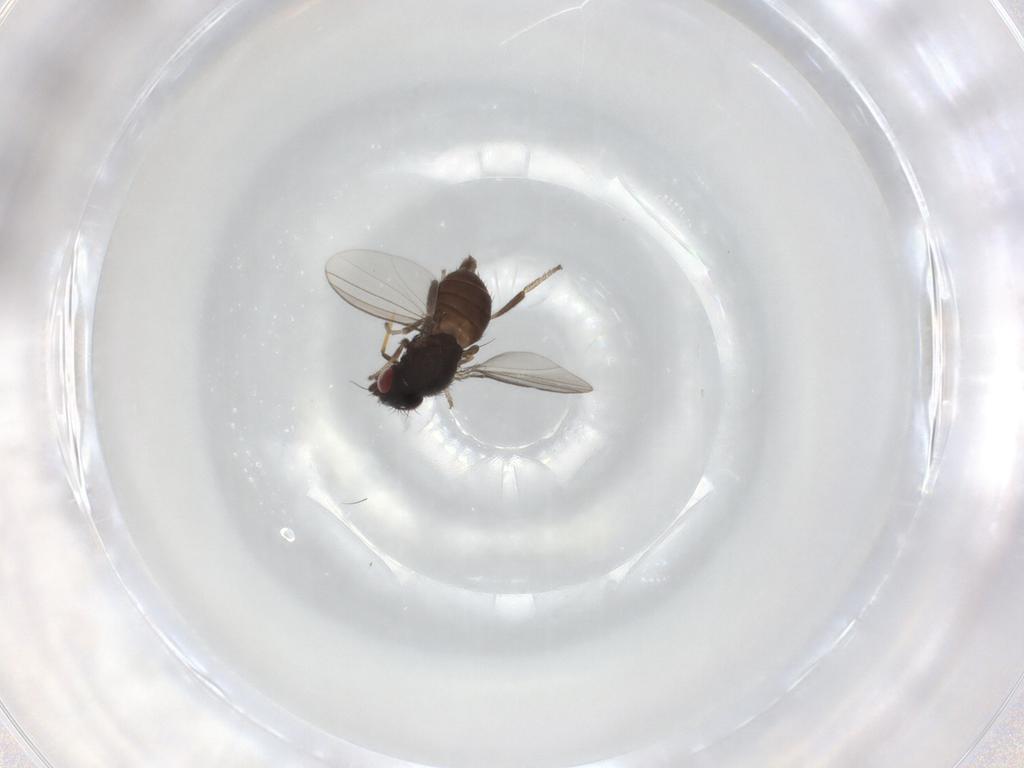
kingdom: Animalia
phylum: Arthropoda
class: Insecta
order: Diptera
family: Milichiidae
